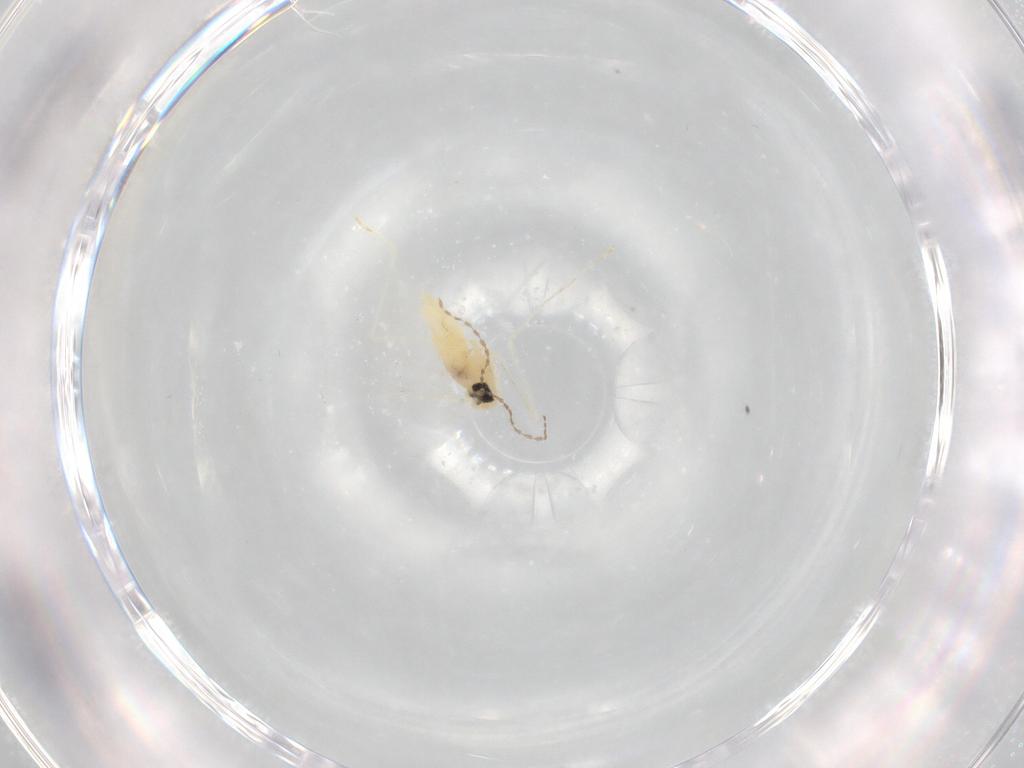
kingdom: Animalia
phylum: Arthropoda
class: Insecta
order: Diptera
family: Cecidomyiidae
